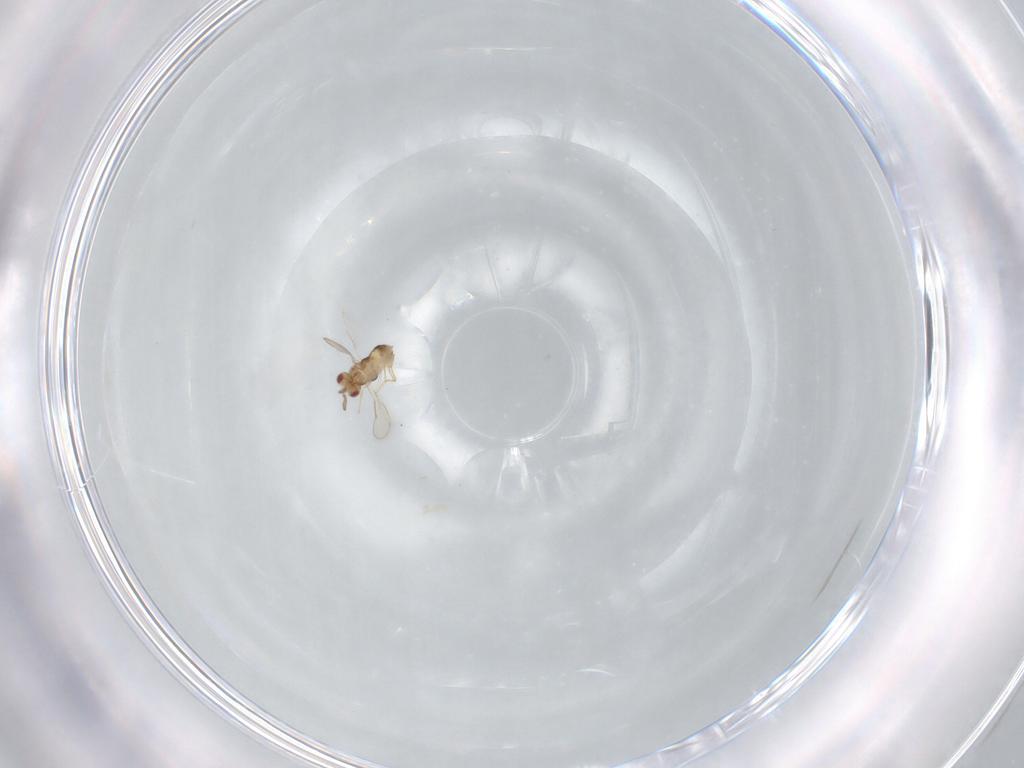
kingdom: Animalia
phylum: Arthropoda
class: Insecta
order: Hymenoptera
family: Aphelinidae
